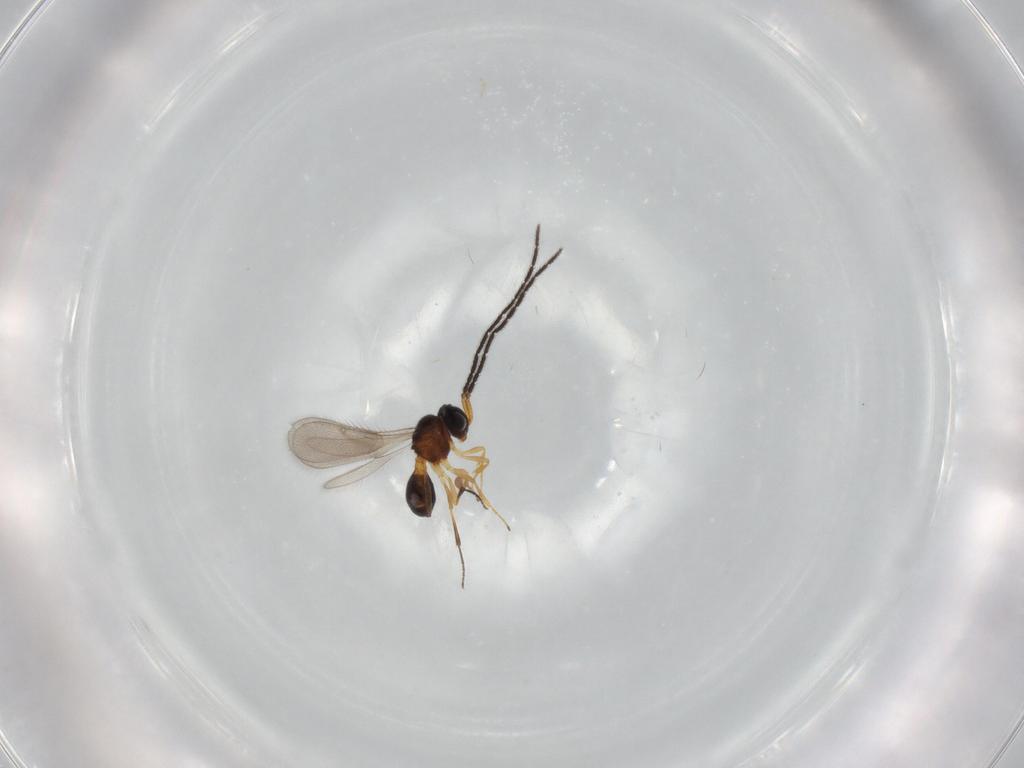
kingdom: Animalia
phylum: Arthropoda
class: Insecta
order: Hymenoptera
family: Scelionidae
